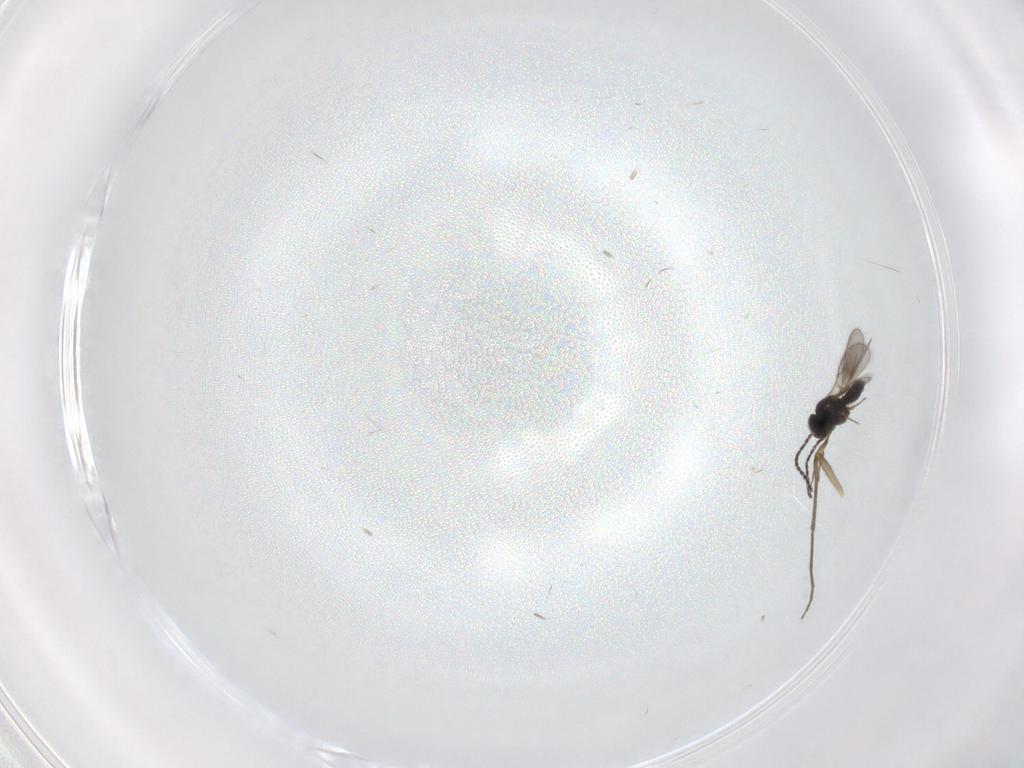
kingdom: Animalia
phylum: Arthropoda
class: Insecta
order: Hymenoptera
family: Scelionidae
